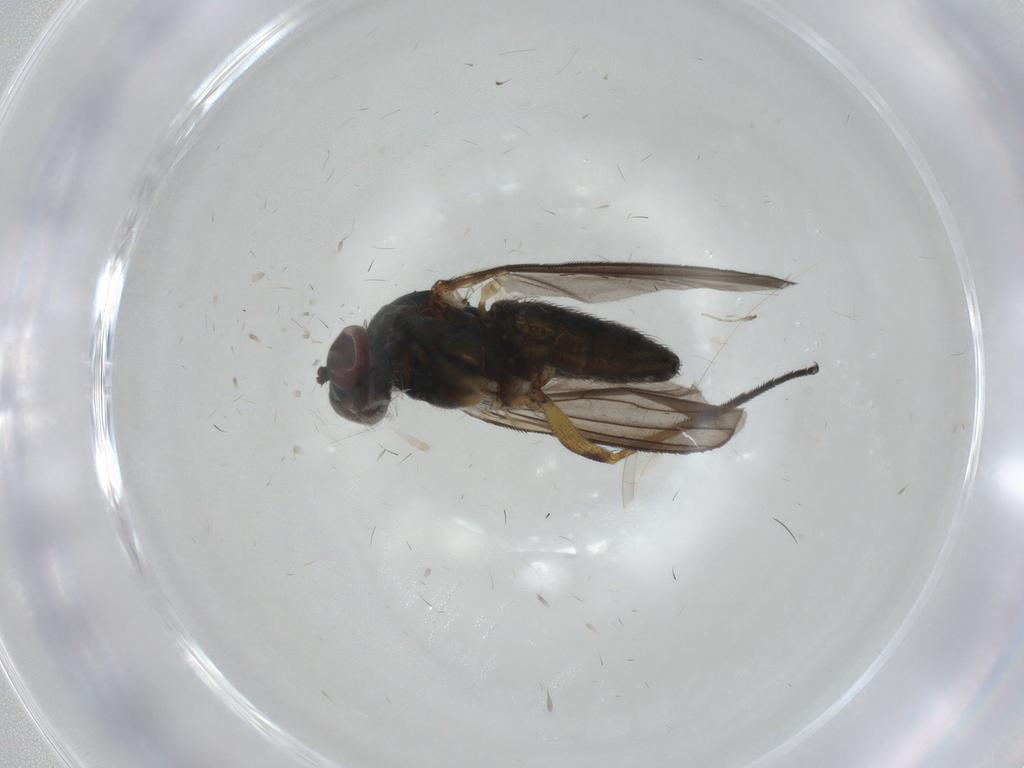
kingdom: Animalia
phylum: Arthropoda
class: Insecta
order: Diptera
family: Dolichopodidae
